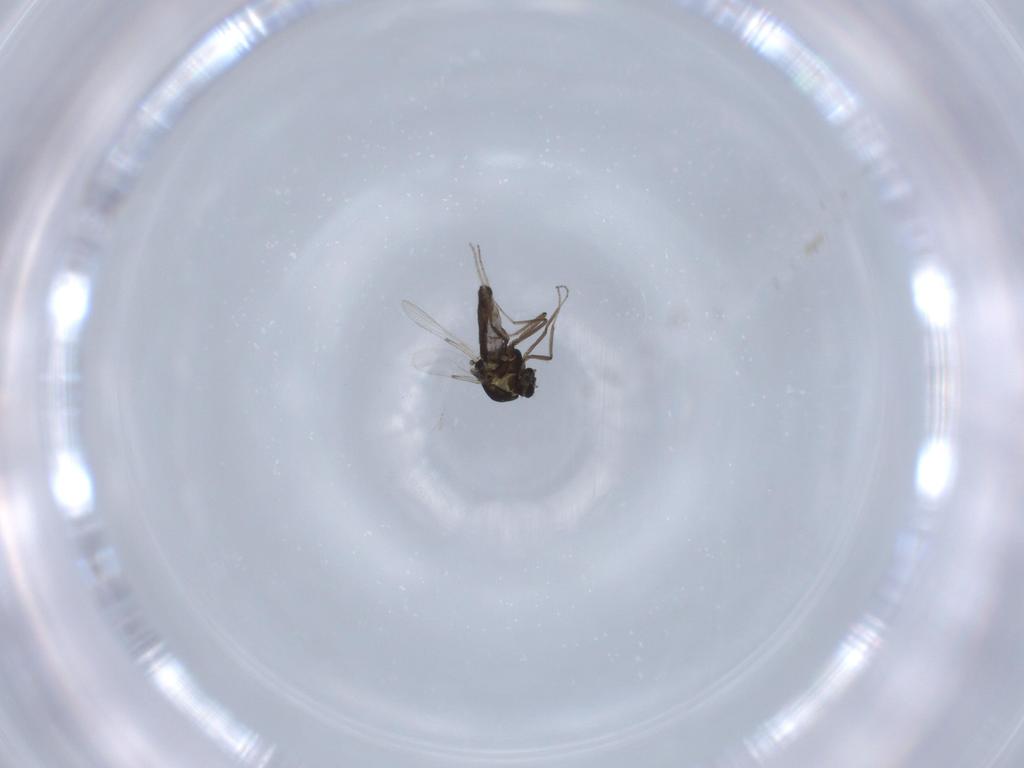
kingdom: Animalia
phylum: Arthropoda
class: Insecta
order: Diptera
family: Ceratopogonidae
